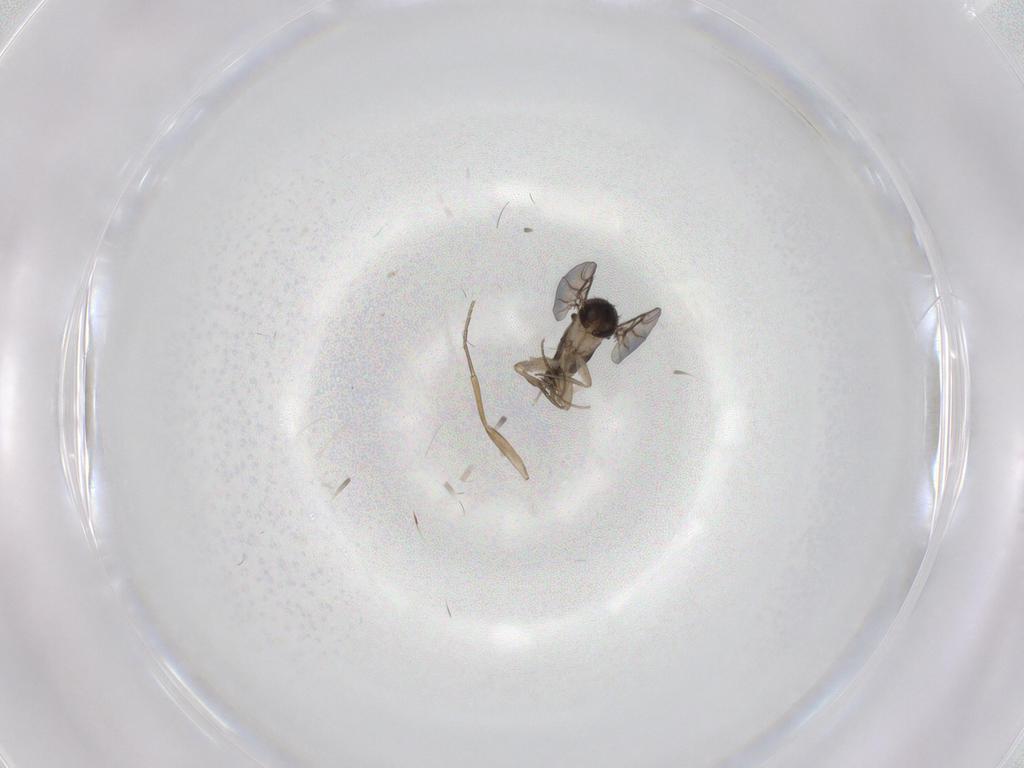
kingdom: Animalia
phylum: Arthropoda
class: Insecta
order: Diptera
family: Phoridae
